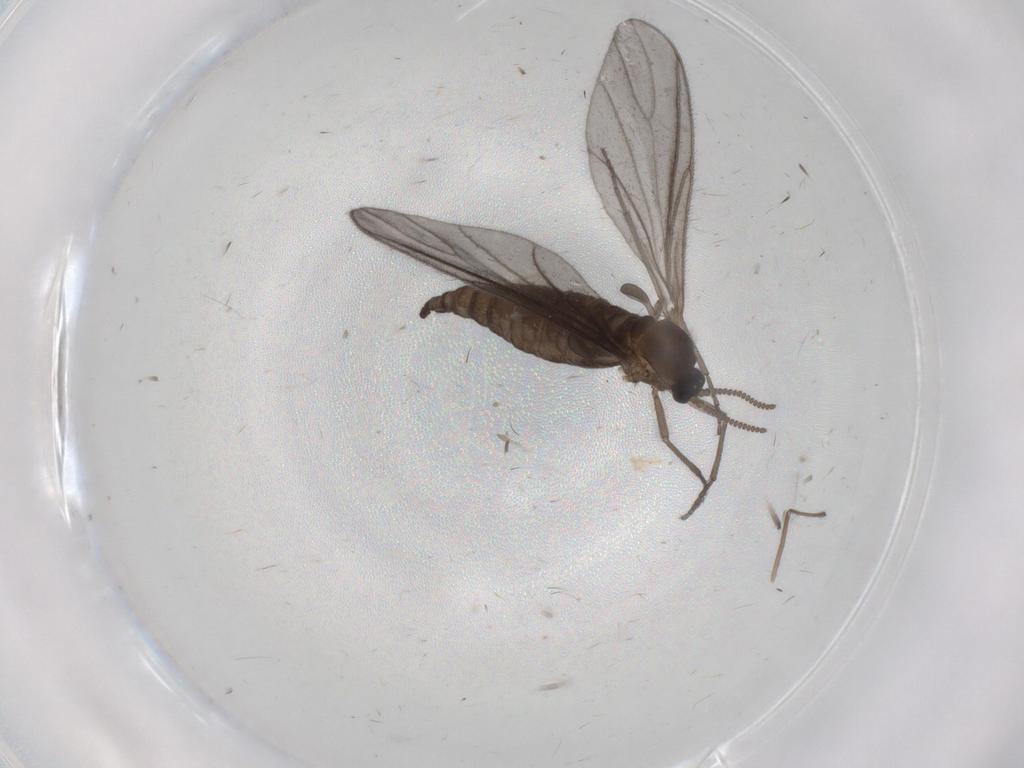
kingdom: Animalia
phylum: Arthropoda
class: Insecta
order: Diptera
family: Sciaridae
